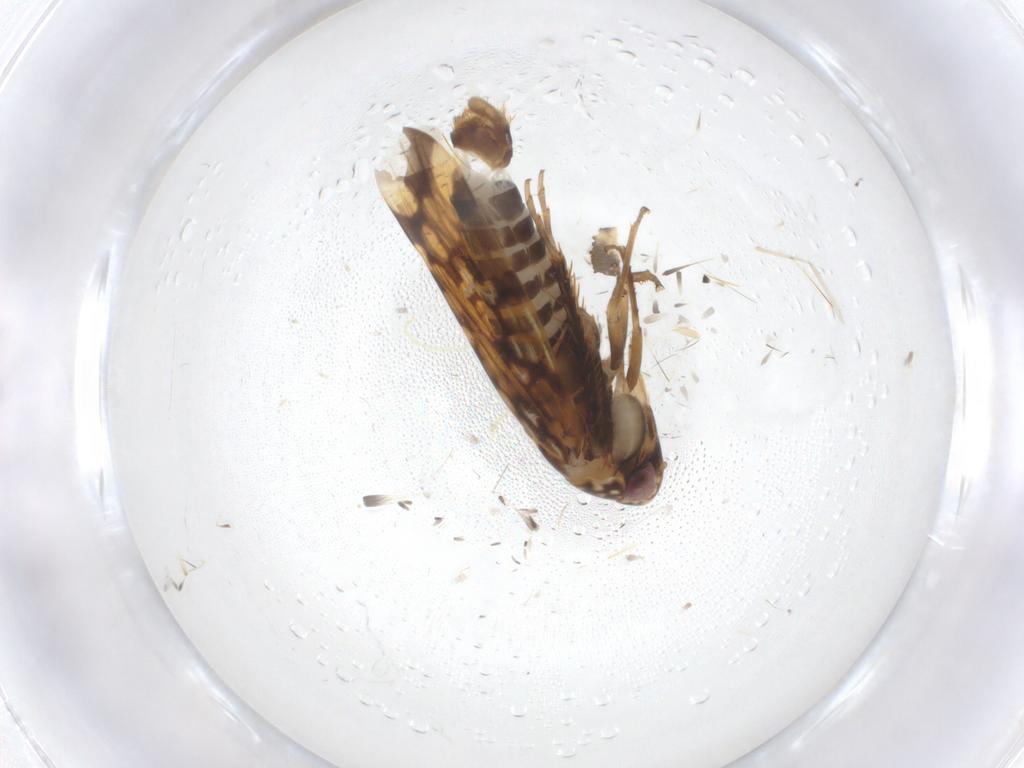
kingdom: Animalia
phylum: Arthropoda
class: Insecta
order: Hemiptera
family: Cicadellidae
